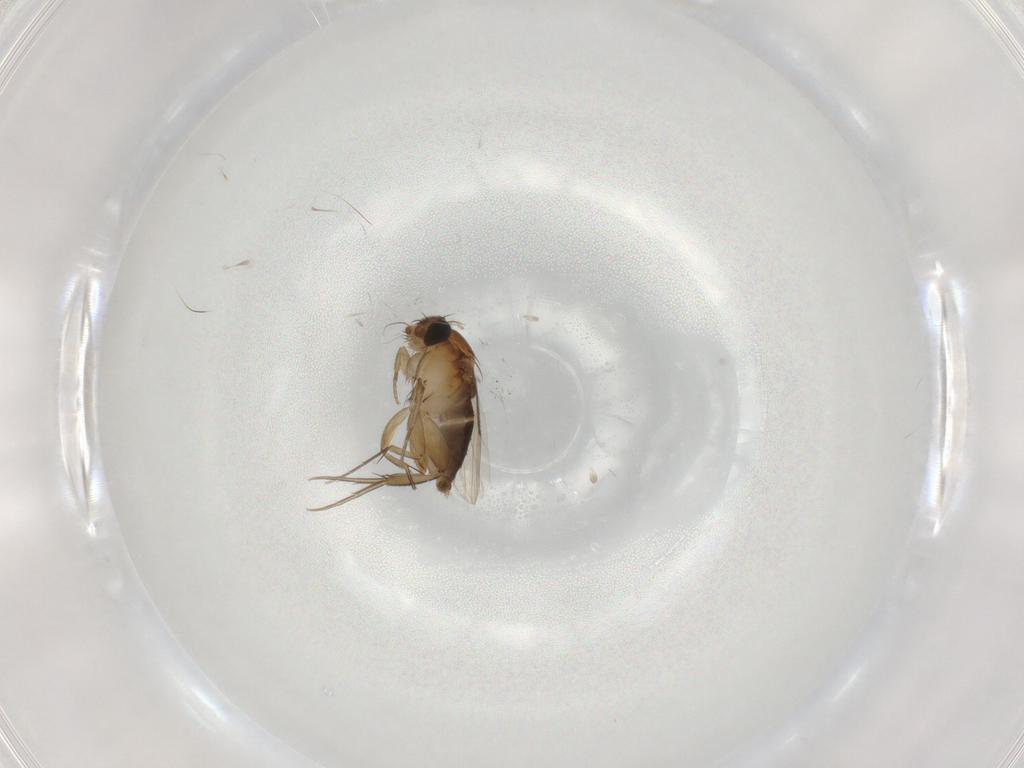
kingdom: Animalia
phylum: Arthropoda
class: Insecta
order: Diptera
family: Phoridae
